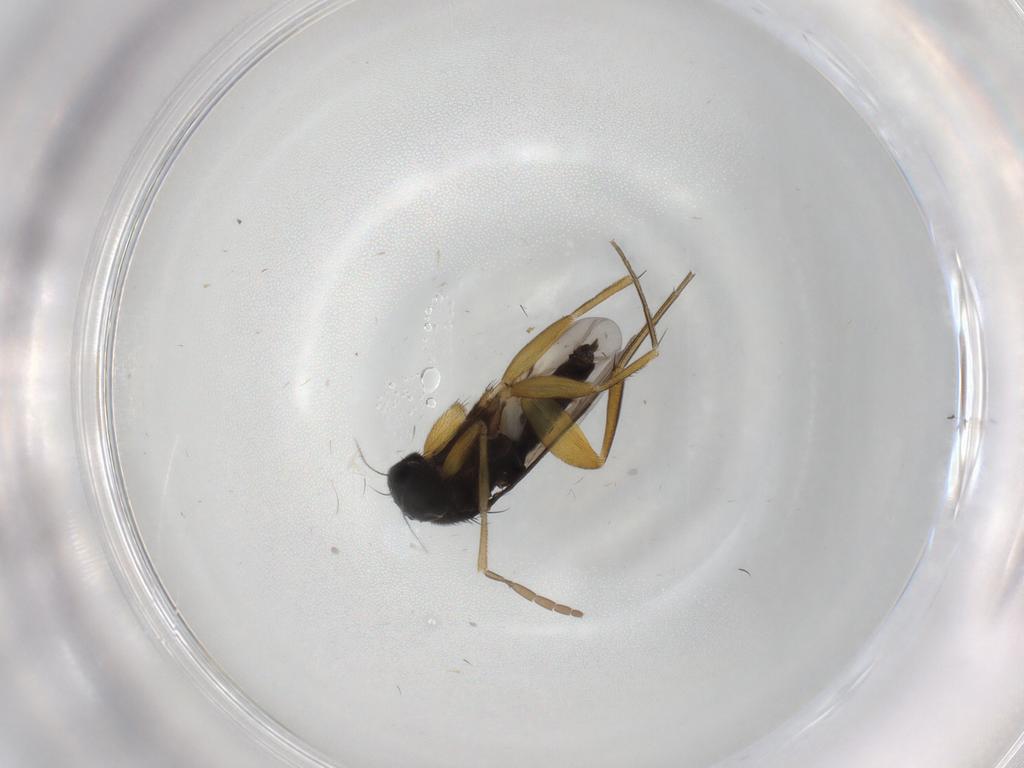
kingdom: Animalia
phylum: Arthropoda
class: Insecta
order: Diptera
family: Phoridae
